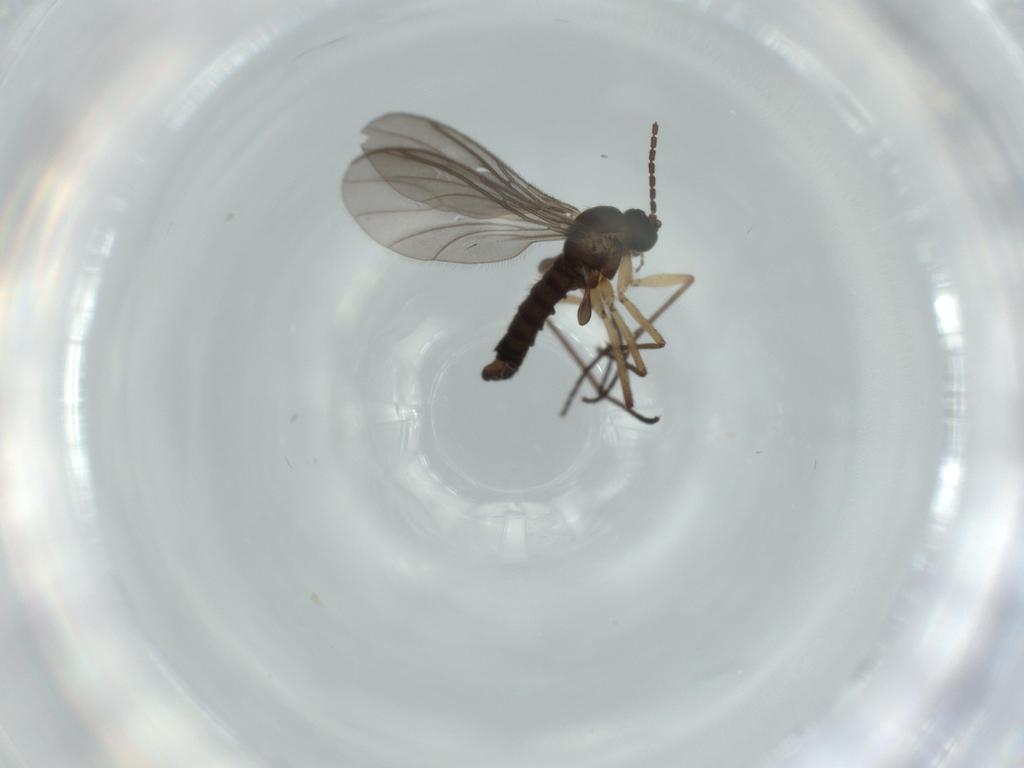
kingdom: Animalia
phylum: Arthropoda
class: Insecta
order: Diptera
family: Sciaridae
